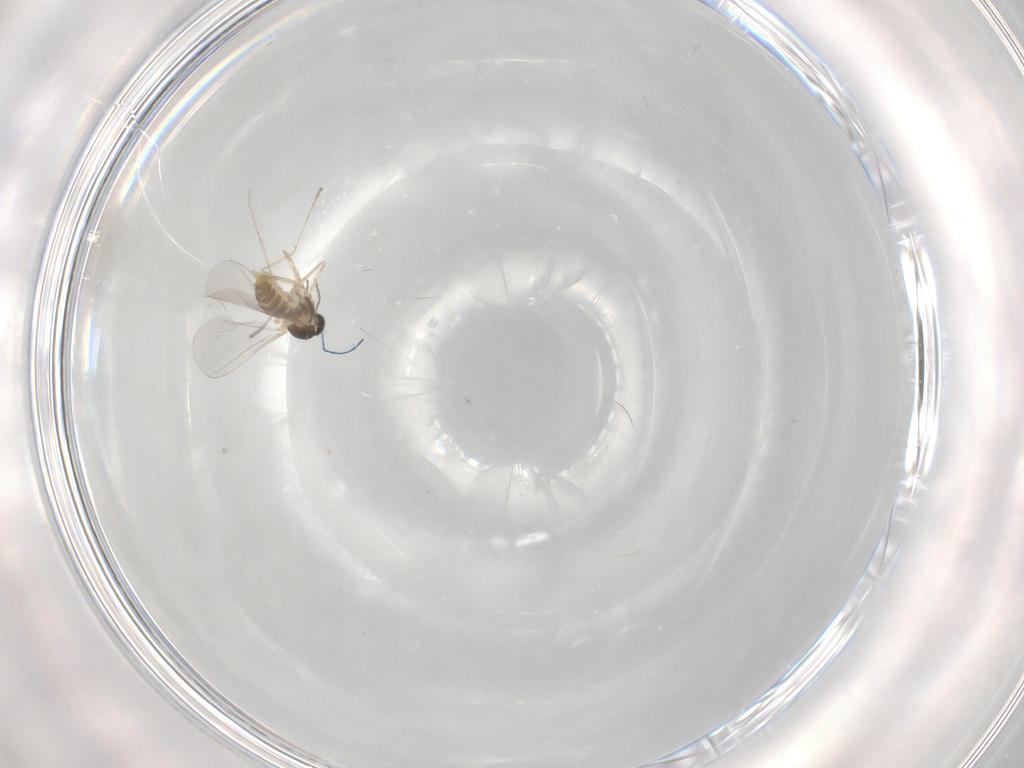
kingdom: Animalia
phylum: Arthropoda
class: Insecta
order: Diptera
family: Cecidomyiidae
